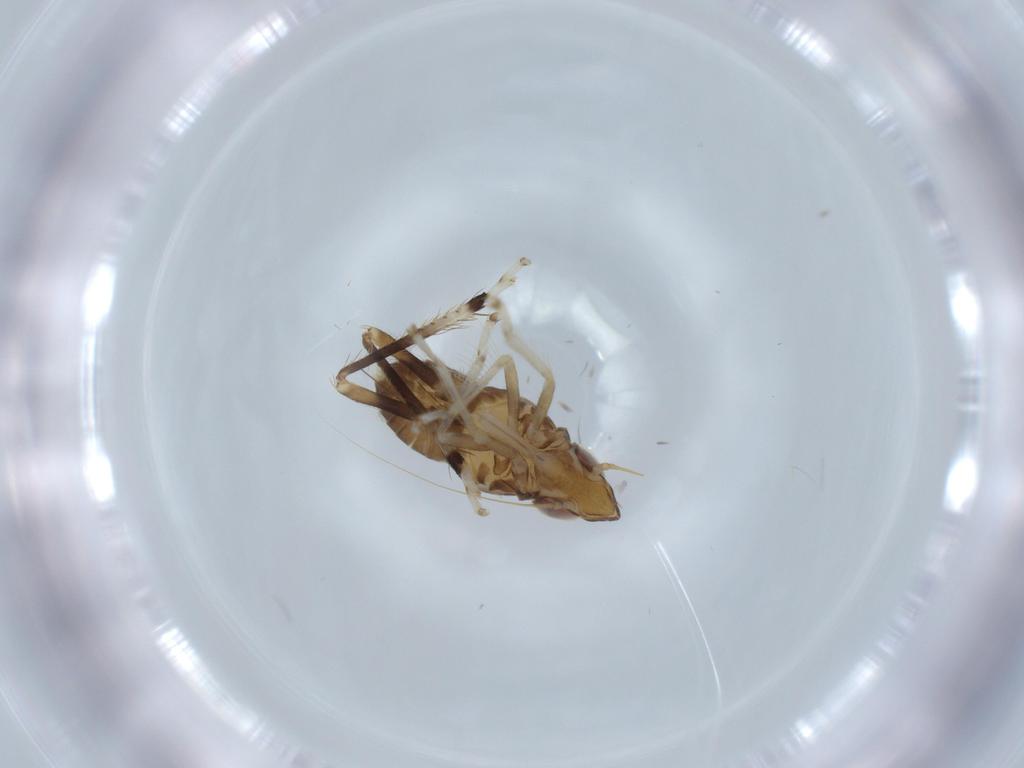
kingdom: Animalia
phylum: Arthropoda
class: Insecta
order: Hemiptera
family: Cicadellidae
